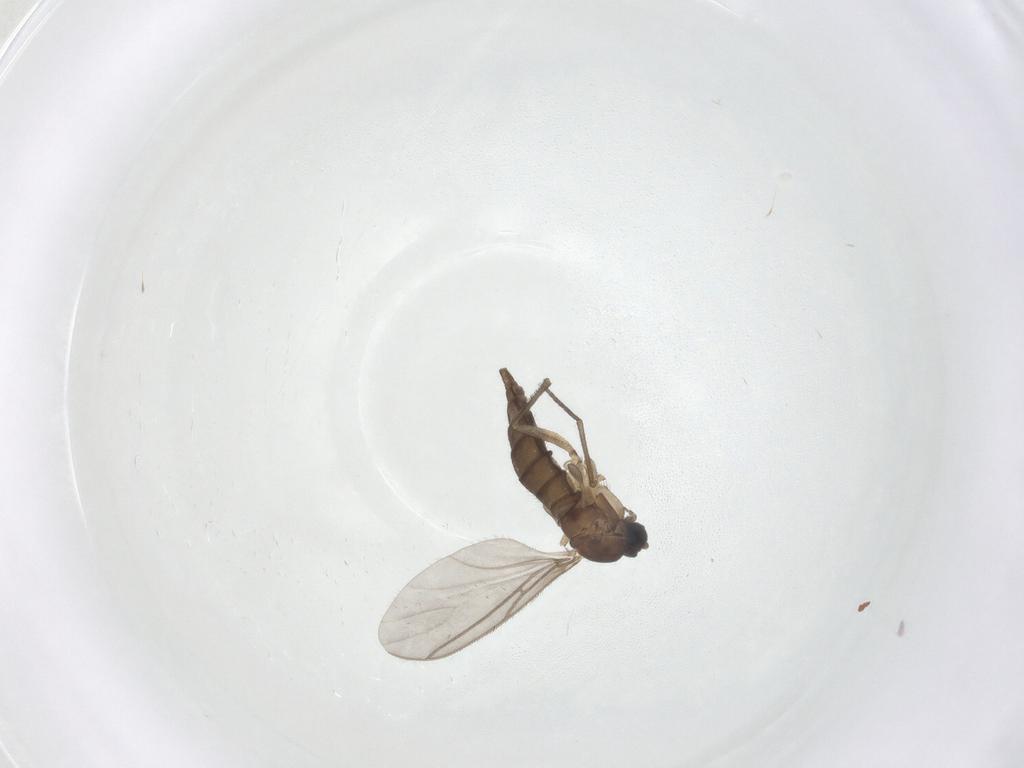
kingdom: Animalia
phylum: Arthropoda
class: Insecta
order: Diptera
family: Sciaridae
